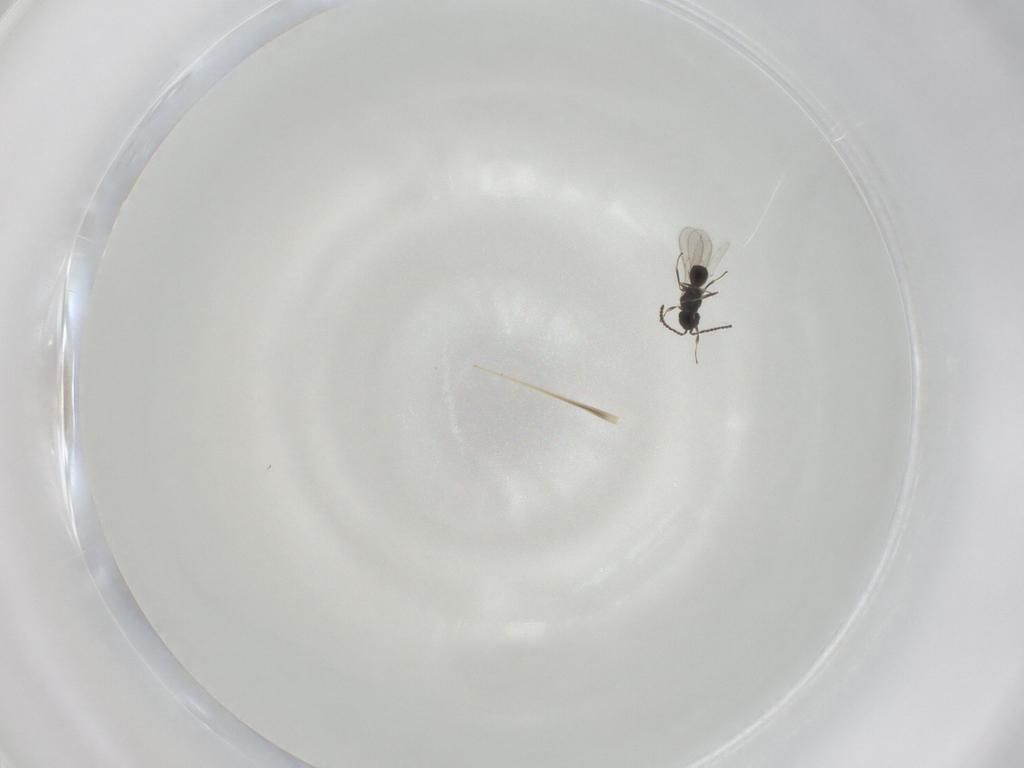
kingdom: Animalia
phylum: Arthropoda
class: Insecta
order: Hymenoptera
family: Scelionidae
